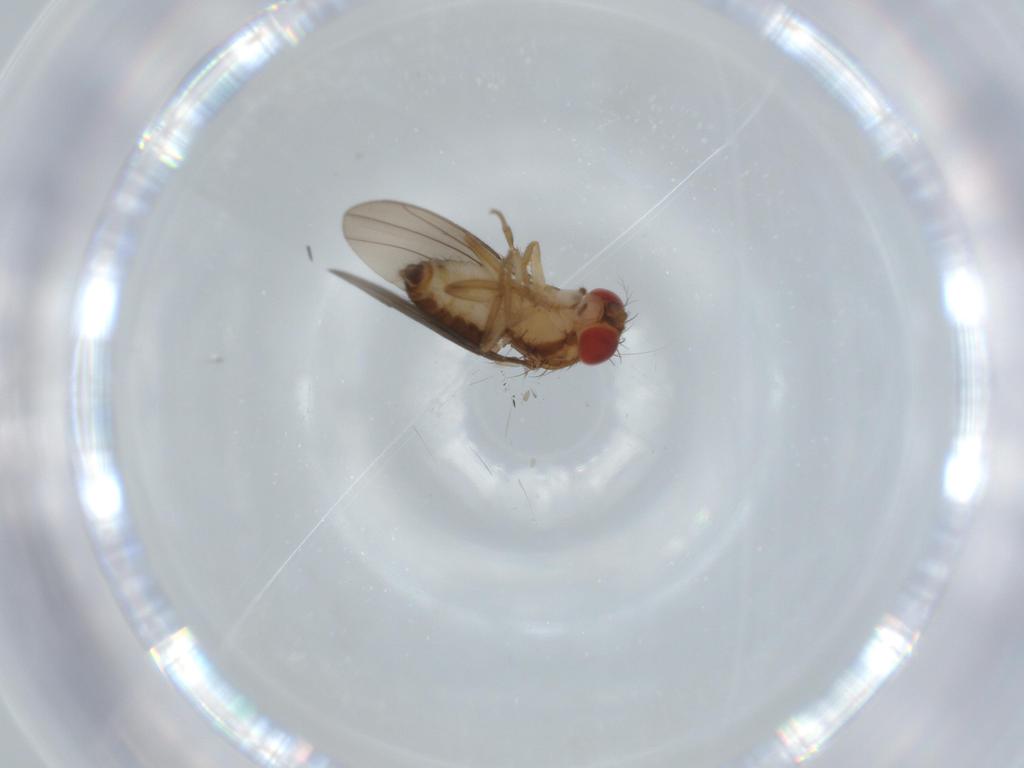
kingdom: Animalia
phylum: Arthropoda
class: Insecta
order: Diptera
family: Drosophilidae
